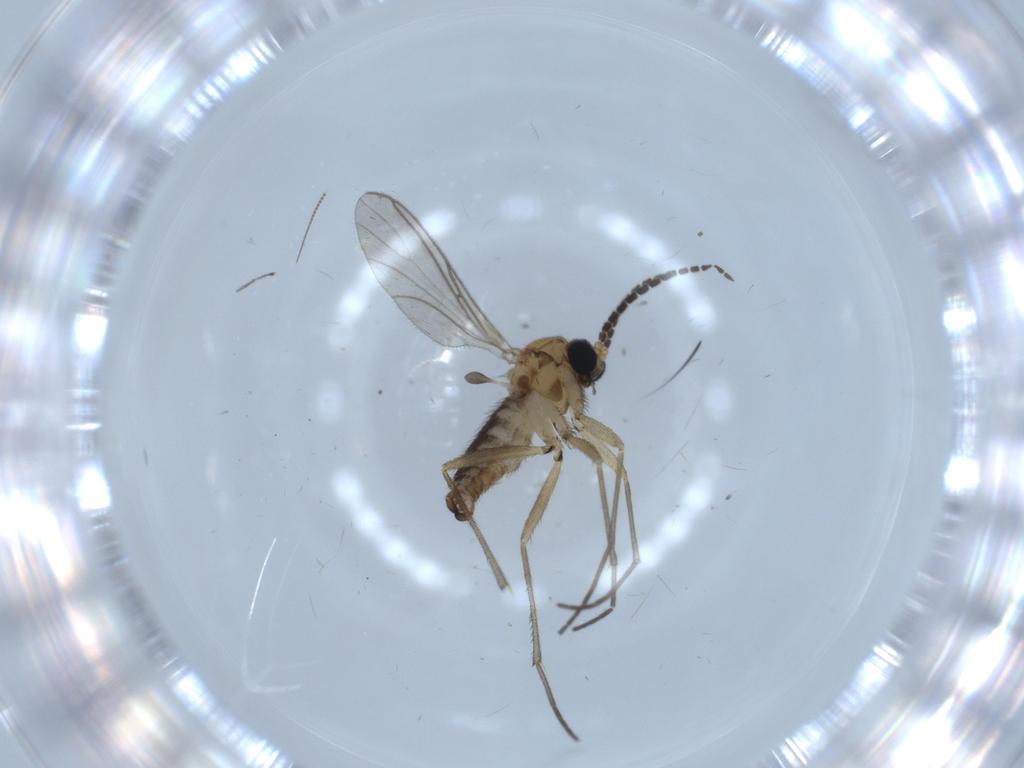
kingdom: Animalia
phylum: Arthropoda
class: Insecta
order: Diptera
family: Sciaridae
